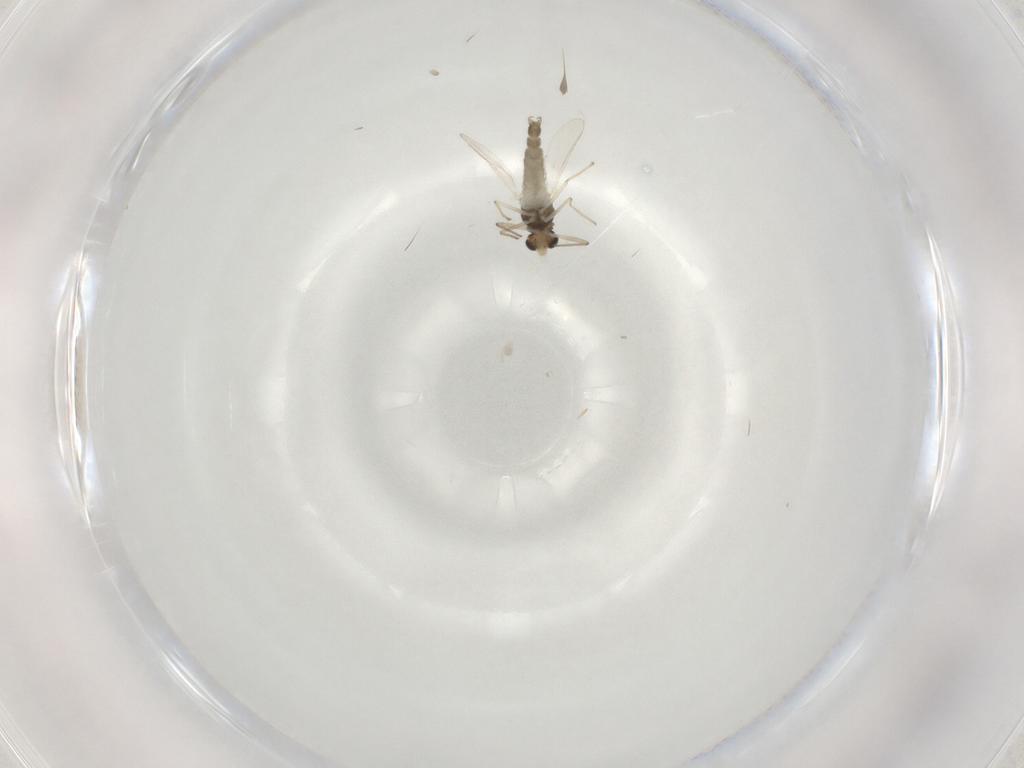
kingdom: Animalia
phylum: Arthropoda
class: Insecta
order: Diptera
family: Chironomidae
